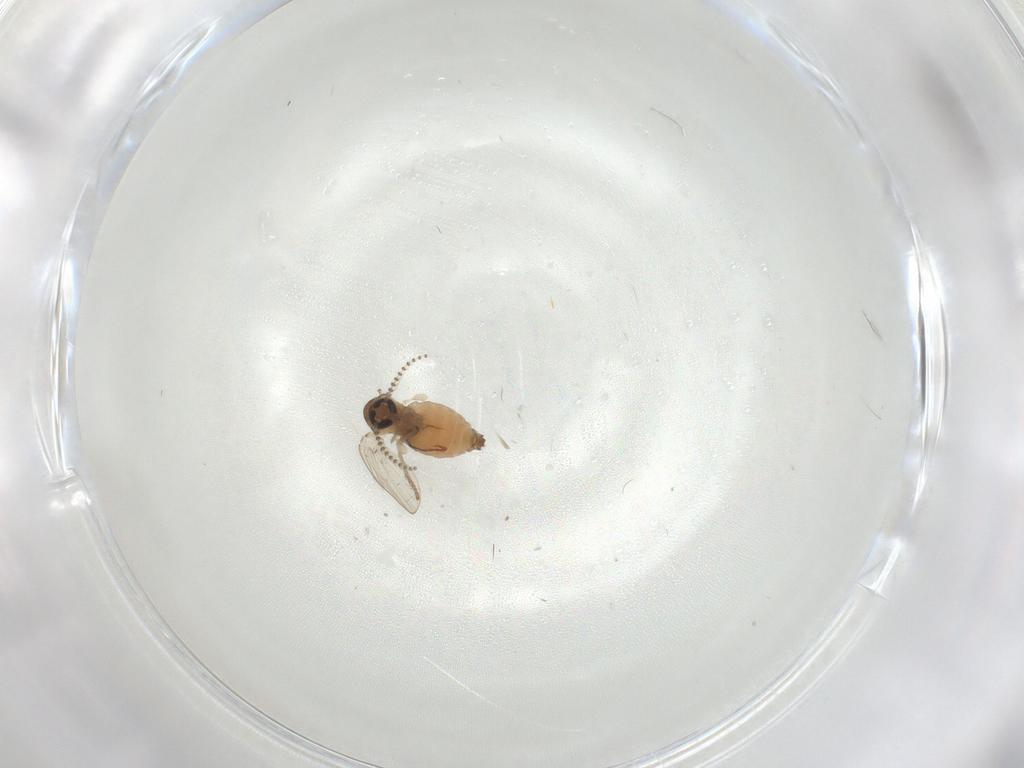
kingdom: Animalia
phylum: Arthropoda
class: Insecta
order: Diptera
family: Psychodidae
